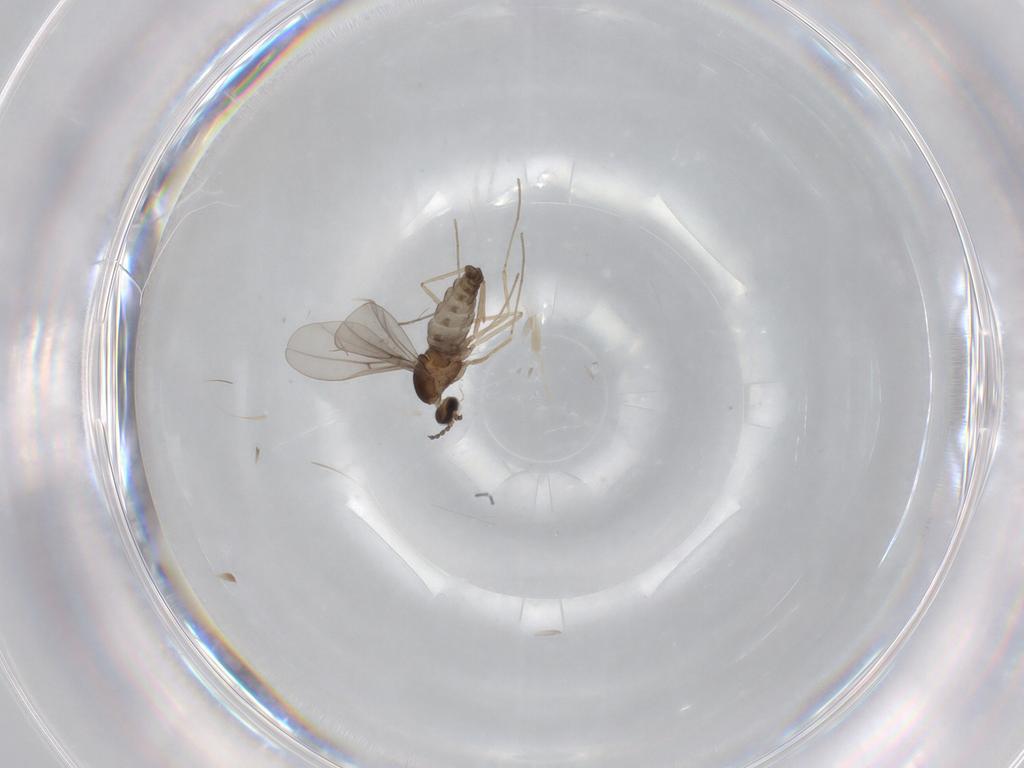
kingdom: Animalia
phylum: Arthropoda
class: Insecta
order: Diptera
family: Cecidomyiidae
